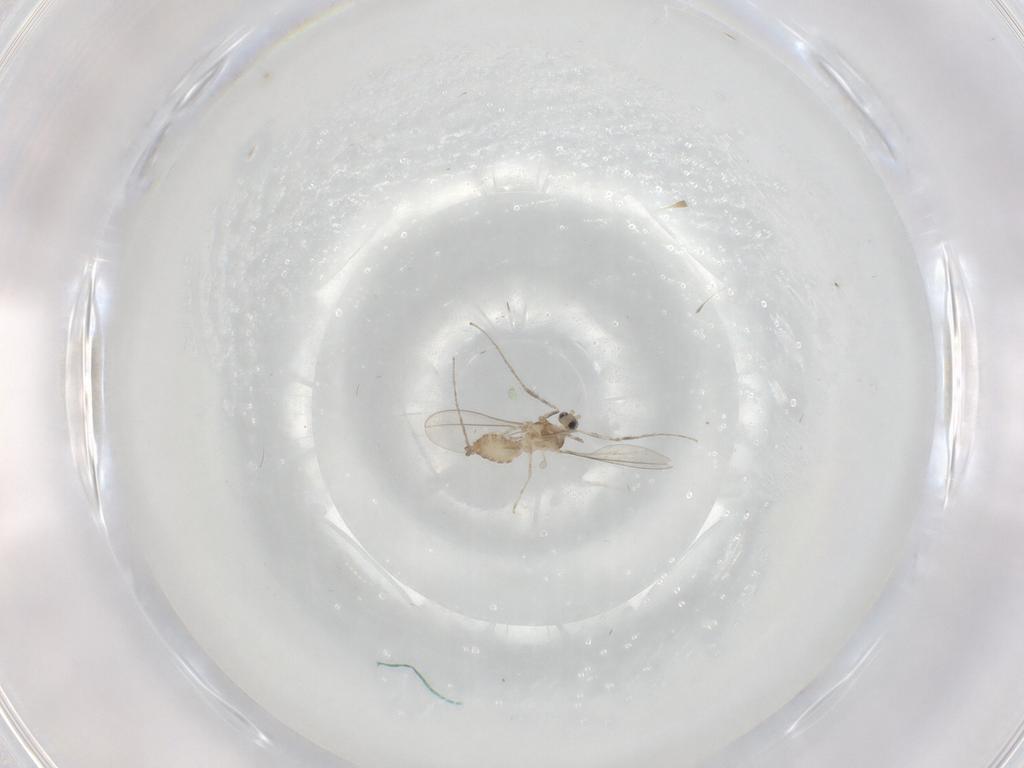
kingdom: Animalia
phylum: Arthropoda
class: Insecta
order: Diptera
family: Cecidomyiidae
